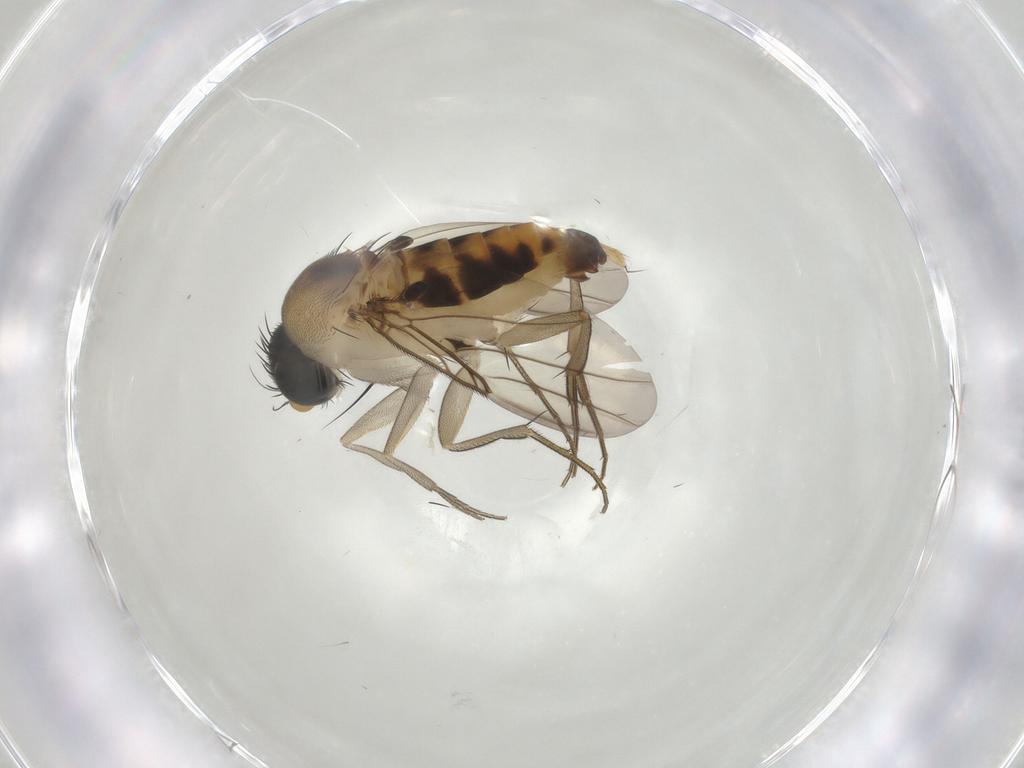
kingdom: Animalia
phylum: Arthropoda
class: Insecta
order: Diptera
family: Phoridae
